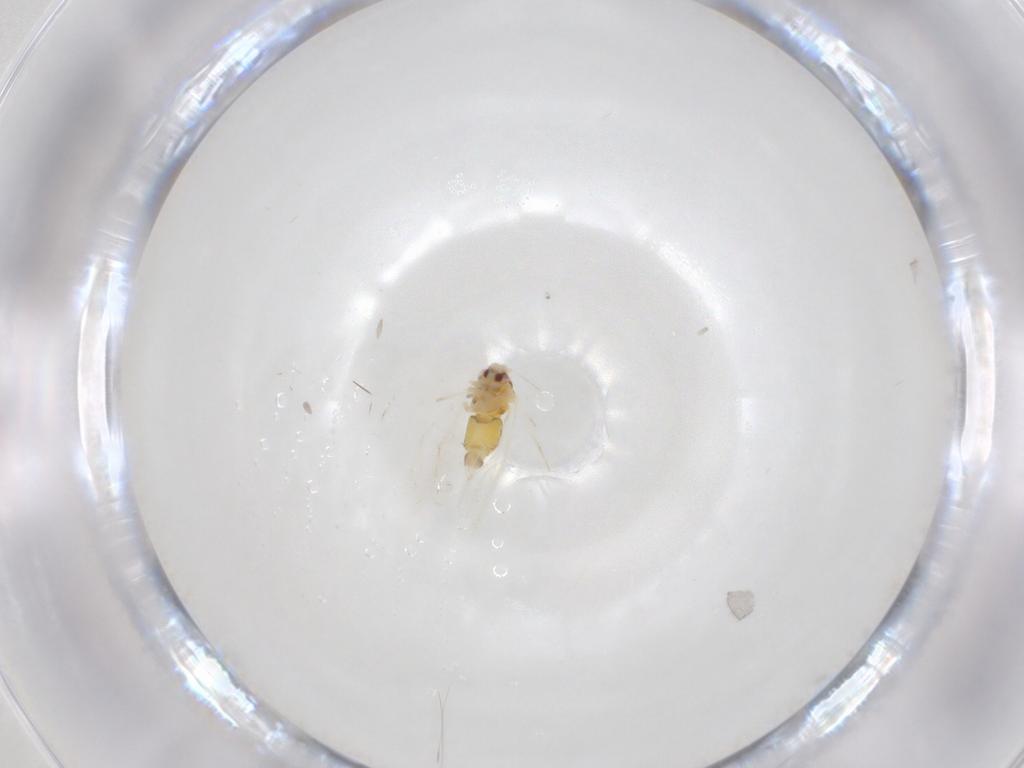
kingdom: Animalia
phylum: Arthropoda
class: Insecta
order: Hemiptera
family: Aleyrodidae
